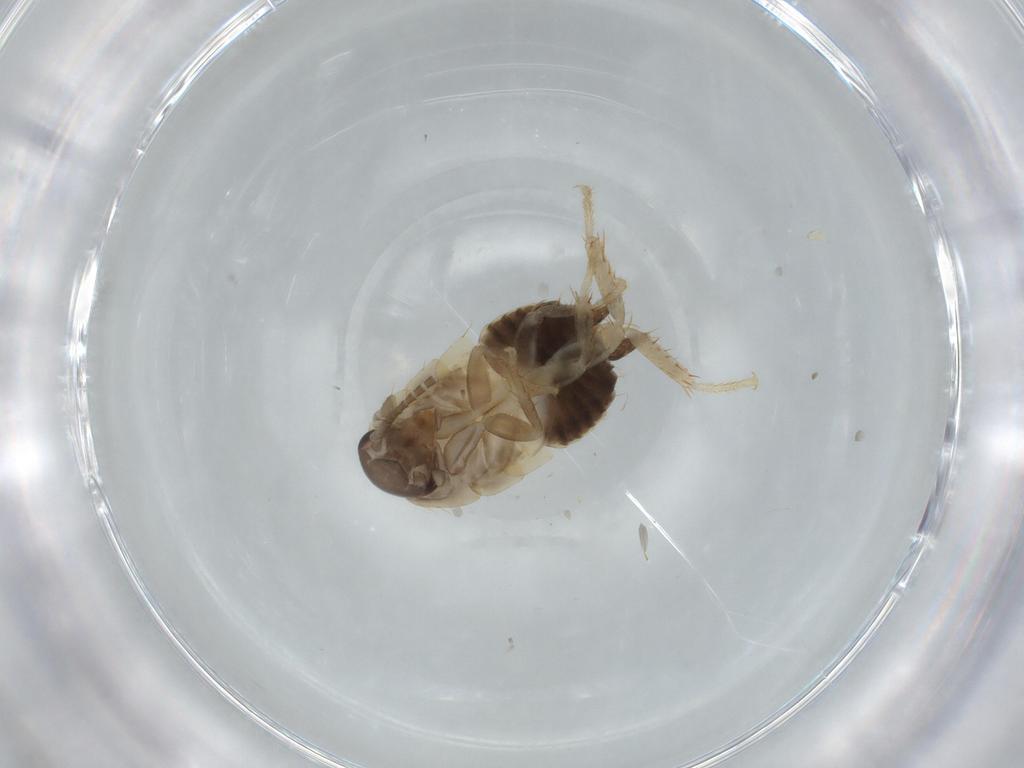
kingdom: Animalia
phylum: Arthropoda
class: Insecta
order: Blattodea
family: Ectobiidae
